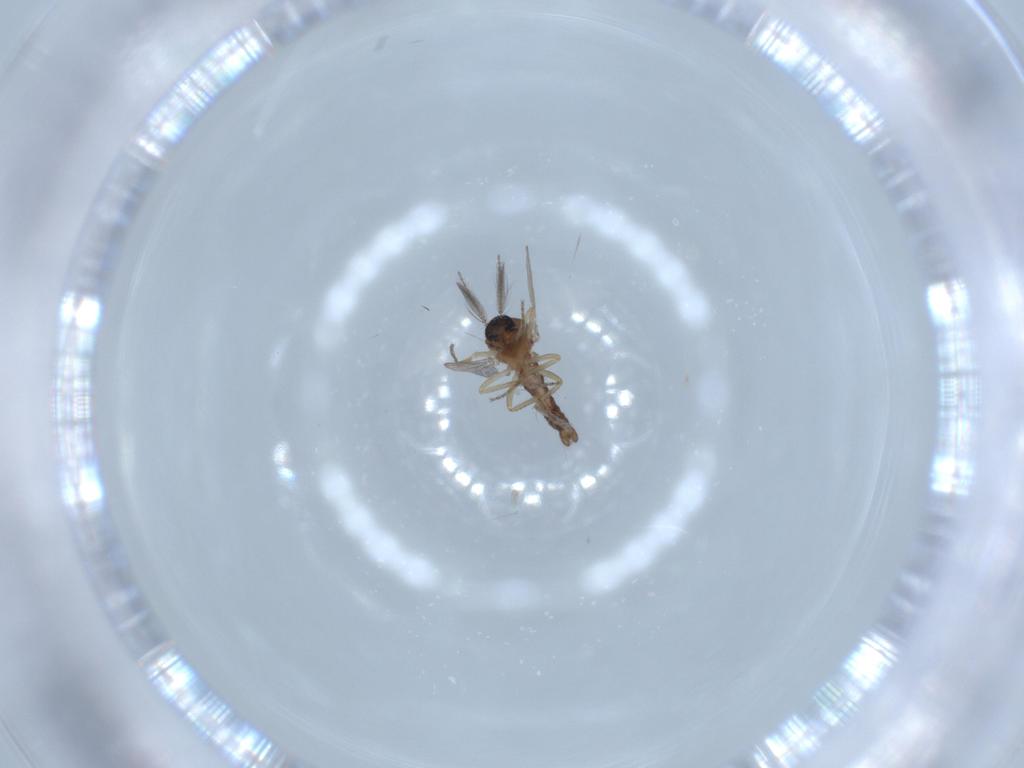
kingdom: Animalia
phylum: Arthropoda
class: Insecta
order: Diptera
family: Ceratopogonidae
